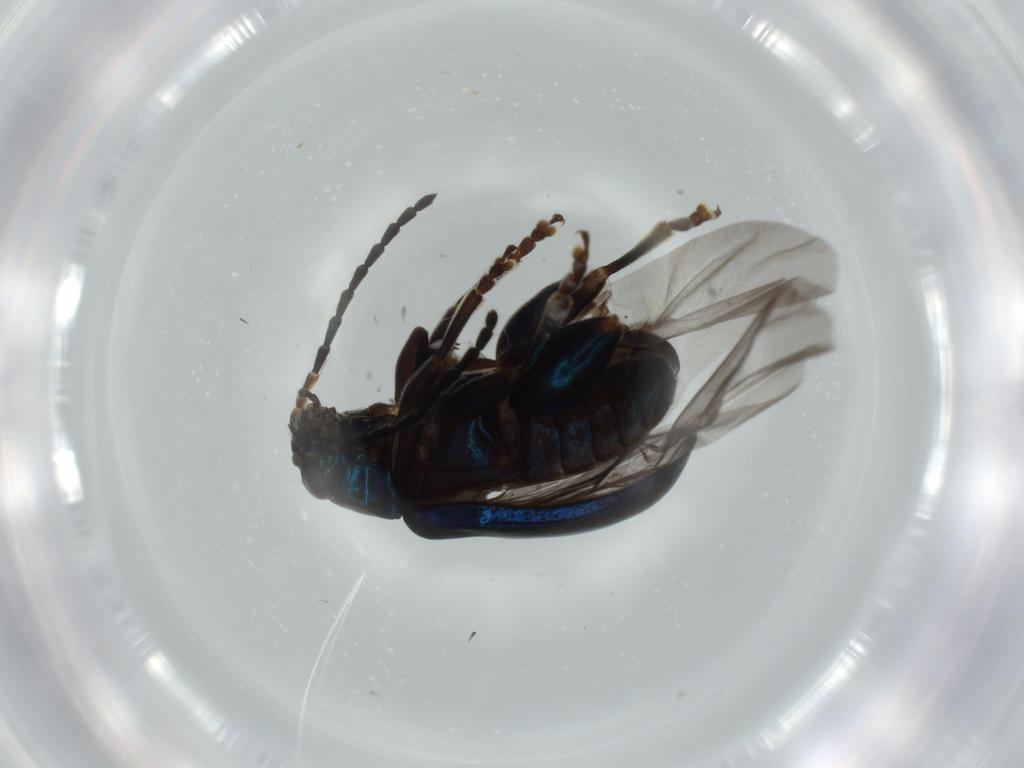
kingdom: Animalia
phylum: Arthropoda
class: Insecta
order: Coleoptera
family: Chrysomelidae
